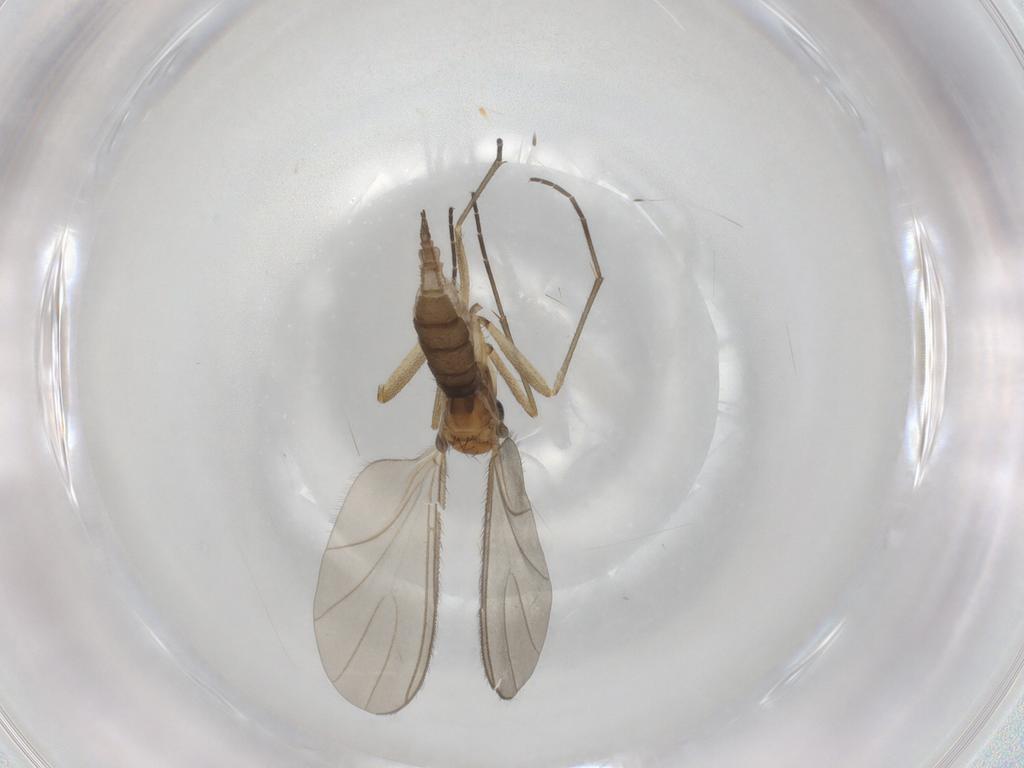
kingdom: Animalia
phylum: Arthropoda
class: Insecta
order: Diptera
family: Sciaridae
